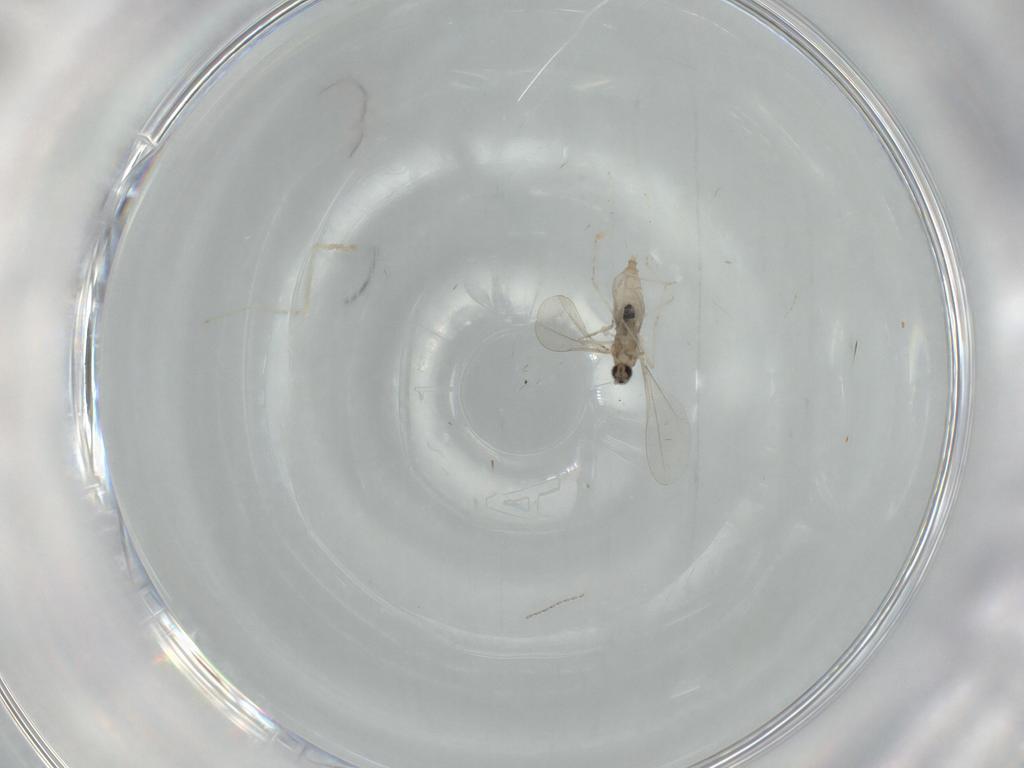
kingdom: Animalia
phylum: Arthropoda
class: Insecta
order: Diptera
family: Cecidomyiidae
